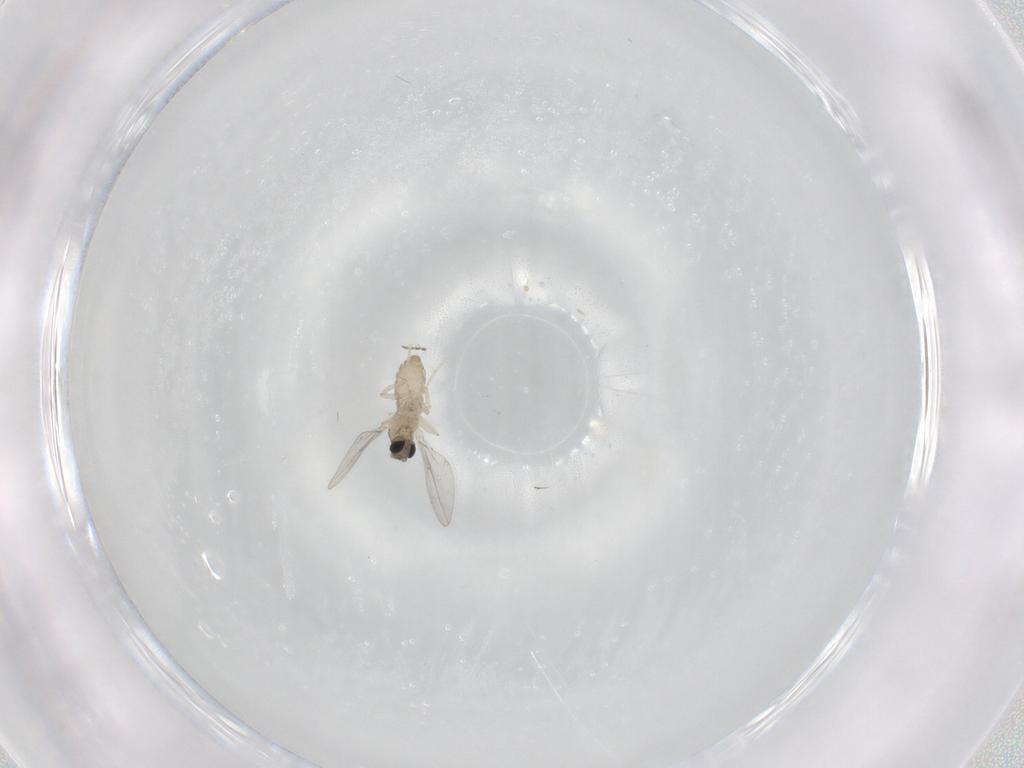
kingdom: Animalia
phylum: Arthropoda
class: Insecta
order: Diptera
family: Cecidomyiidae
